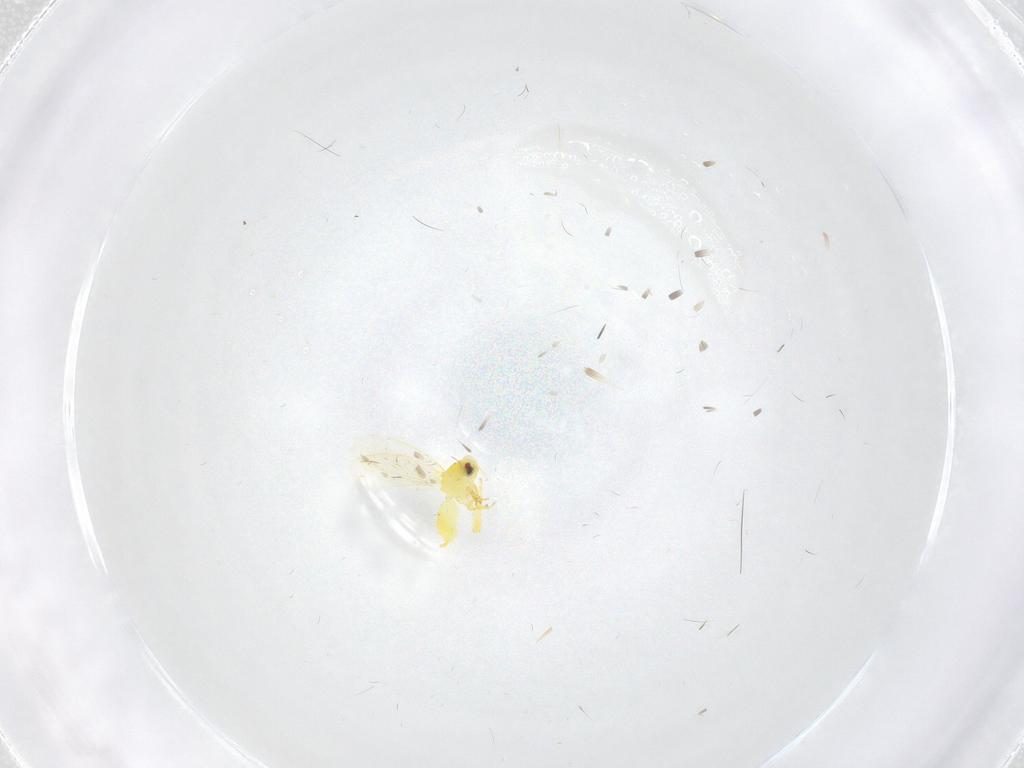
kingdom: Animalia
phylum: Arthropoda
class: Insecta
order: Hemiptera
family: Aleyrodidae
